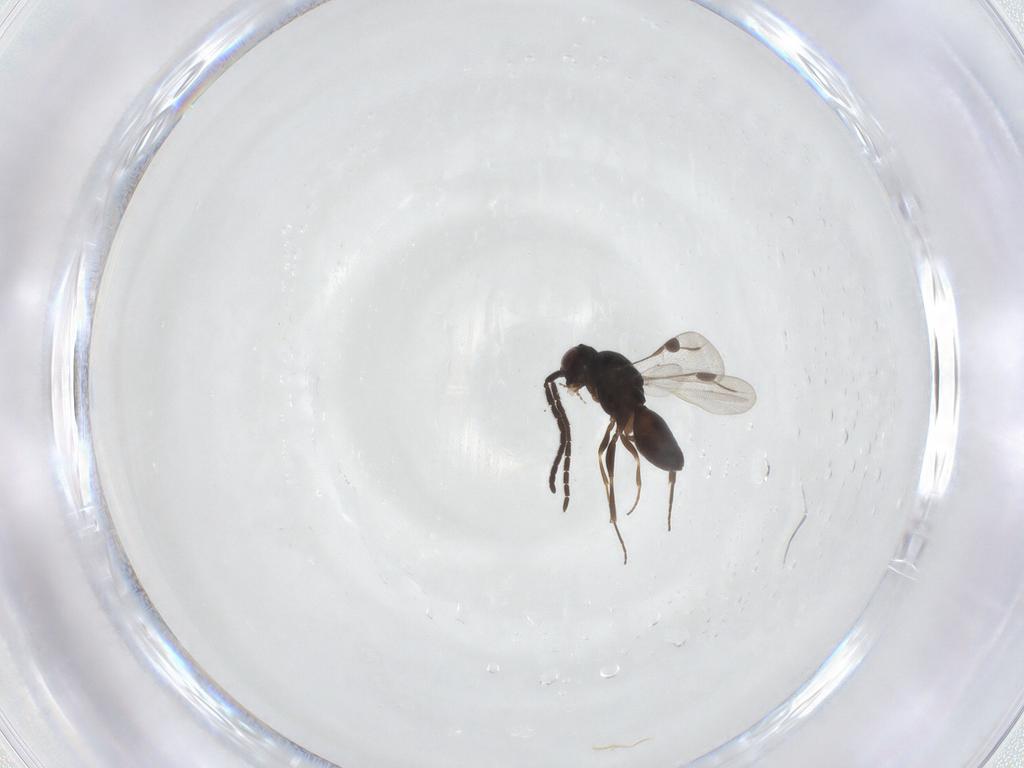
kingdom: Animalia
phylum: Arthropoda
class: Insecta
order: Hymenoptera
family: Megaspilidae
